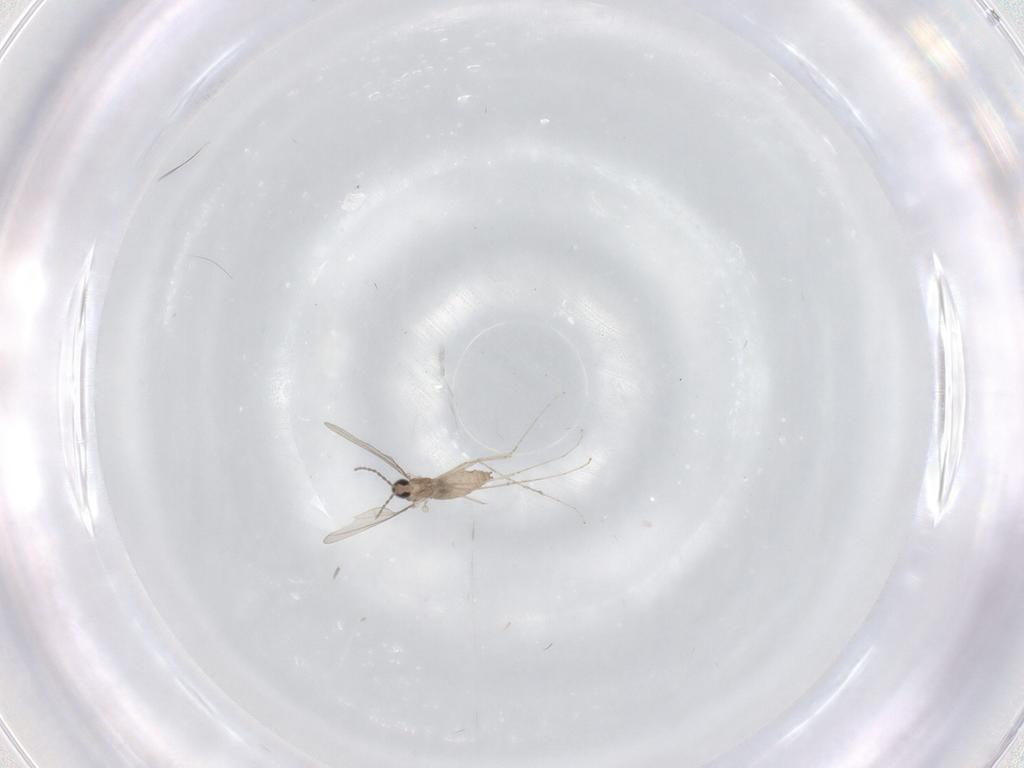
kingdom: Animalia
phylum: Arthropoda
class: Insecta
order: Diptera
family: Cecidomyiidae
